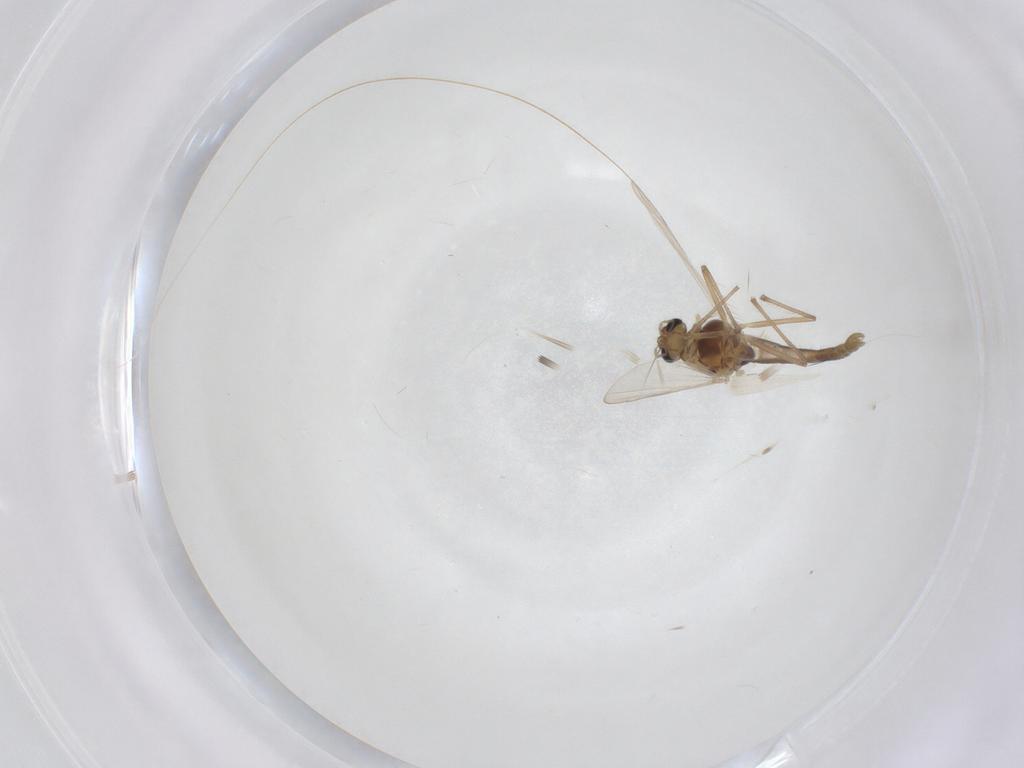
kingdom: Animalia
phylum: Arthropoda
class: Insecta
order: Diptera
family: Chironomidae
